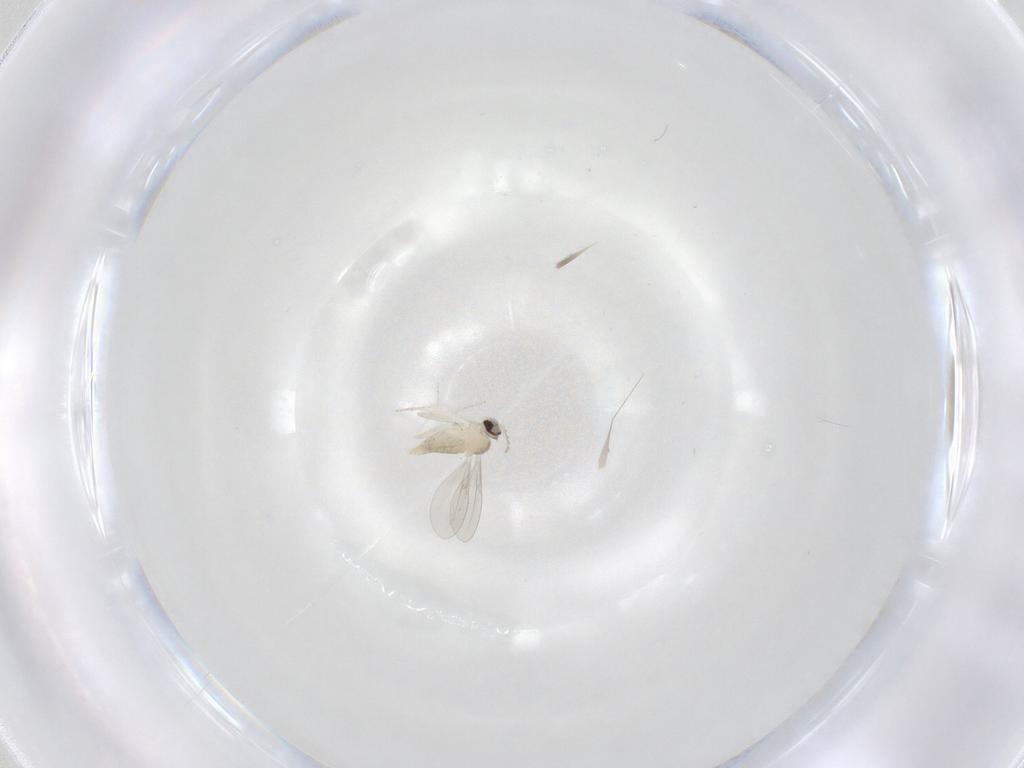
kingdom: Animalia
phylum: Arthropoda
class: Insecta
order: Diptera
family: Cecidomyiidae
